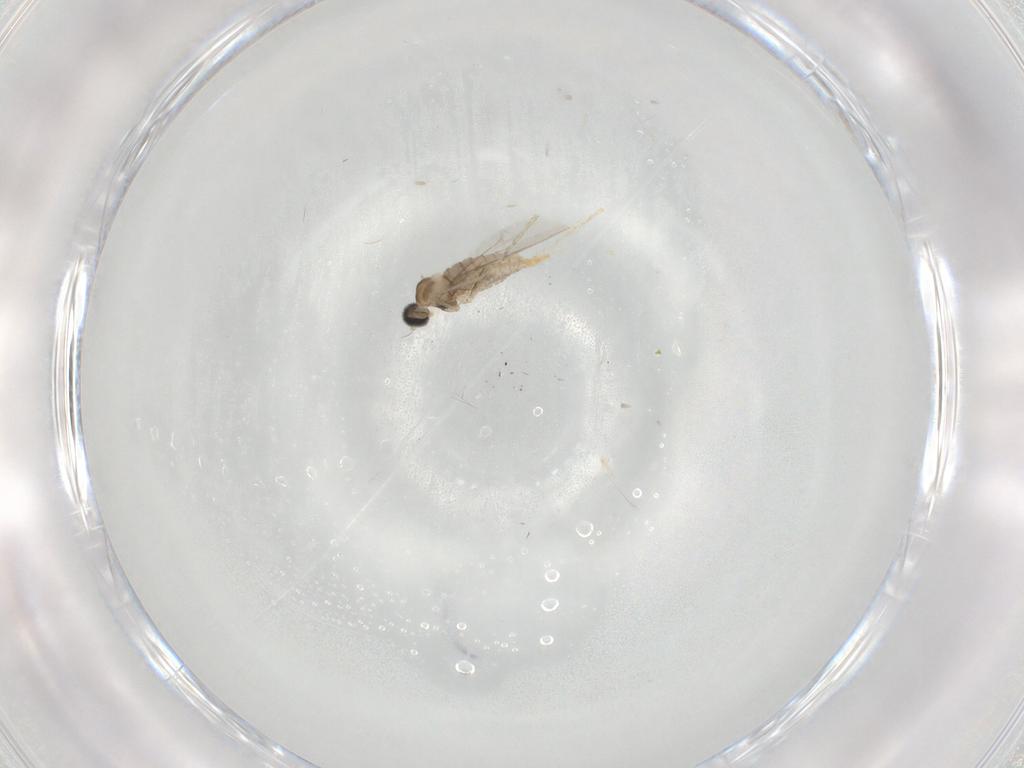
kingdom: Animalia
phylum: Arthropoda
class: Insecta
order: Diptera
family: Cecidomyiidae
